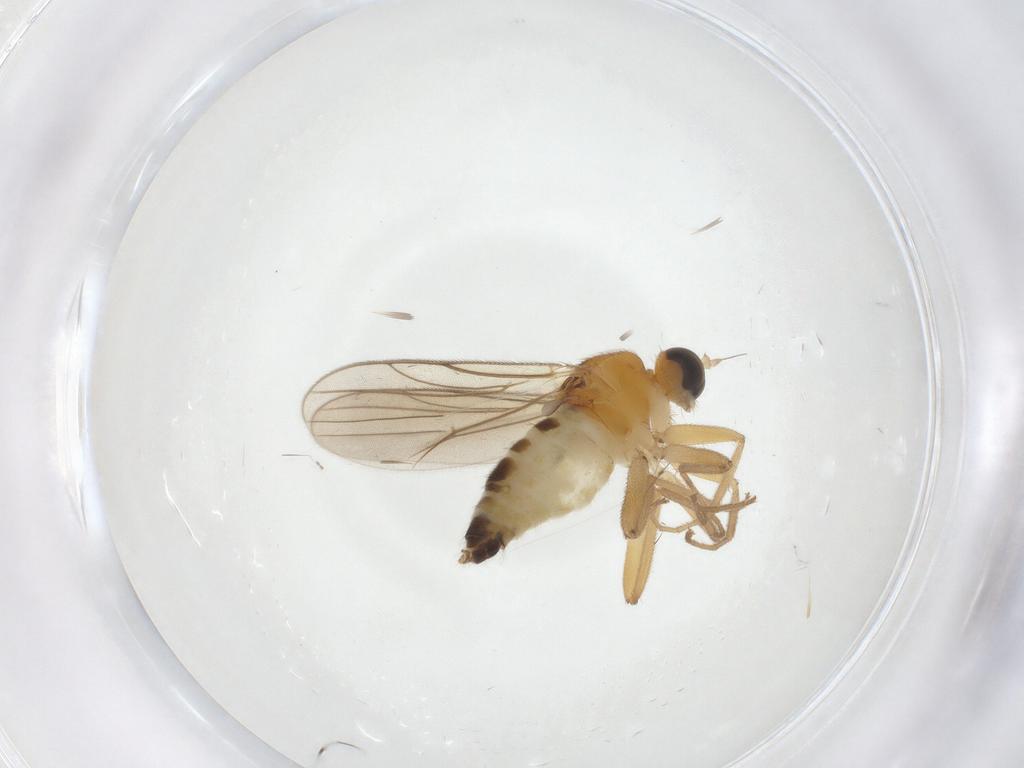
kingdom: Animalia
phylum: Arthropoda
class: Insecta
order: Diptera
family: Hybotidae
